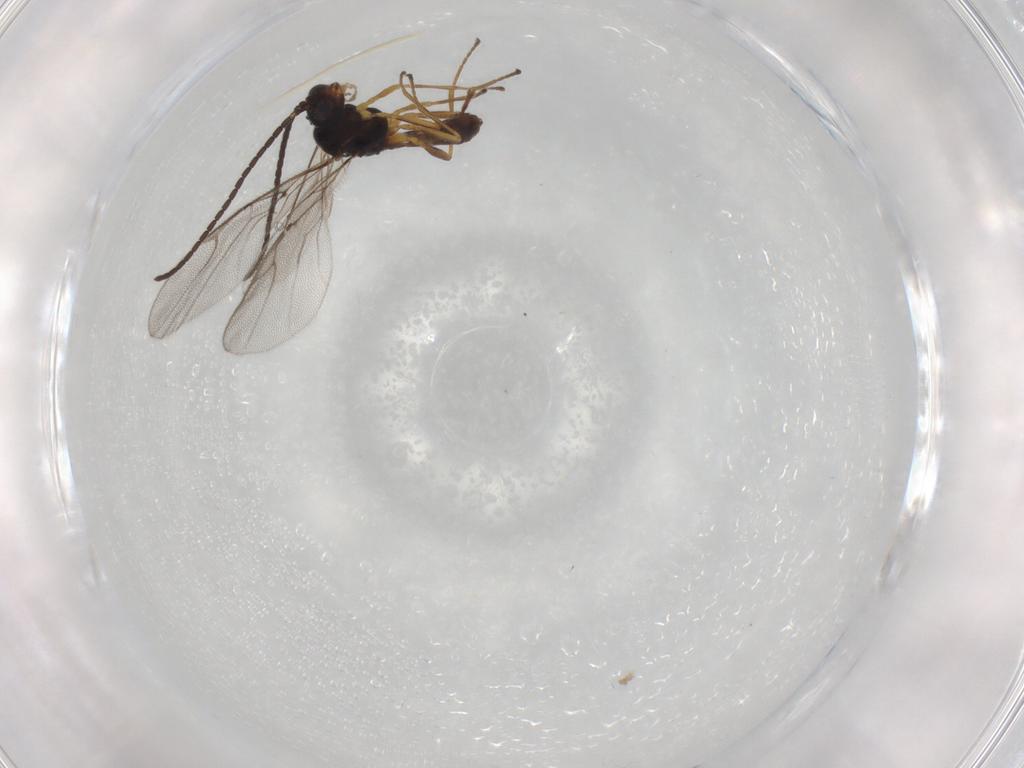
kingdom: Animalia
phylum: Arthropoda
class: Insecta
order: Hymenoptera
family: Braconidae
